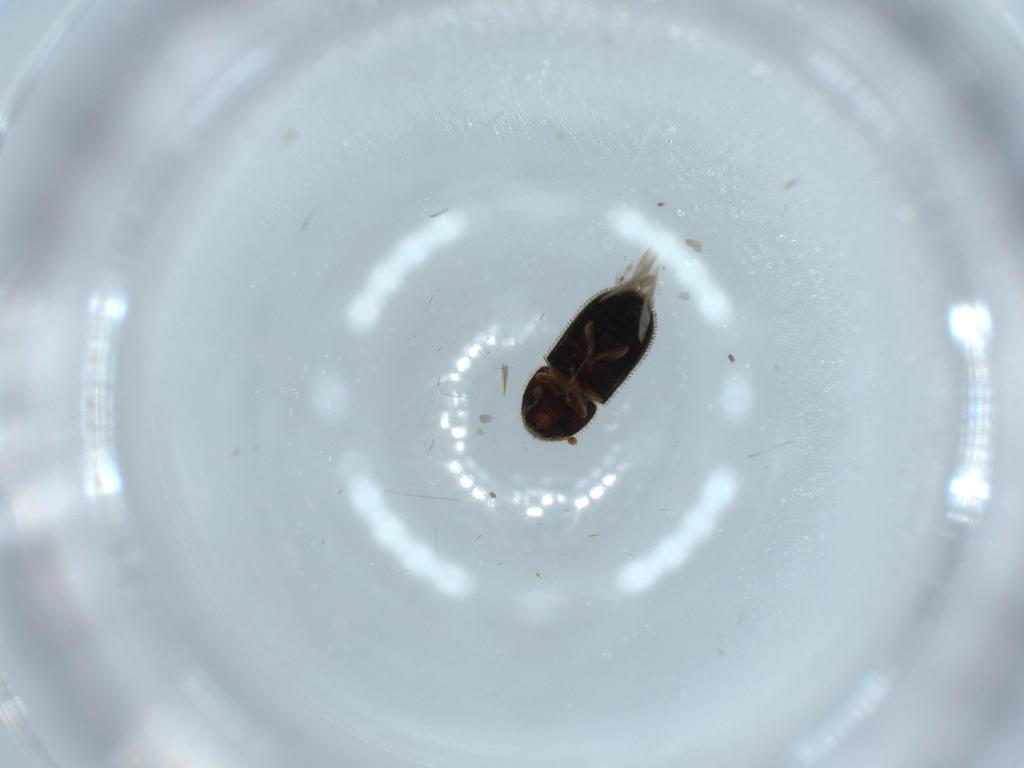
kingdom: Animalia
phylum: Arthropoda
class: Insecta
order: Coleoptera
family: Curculionidae
